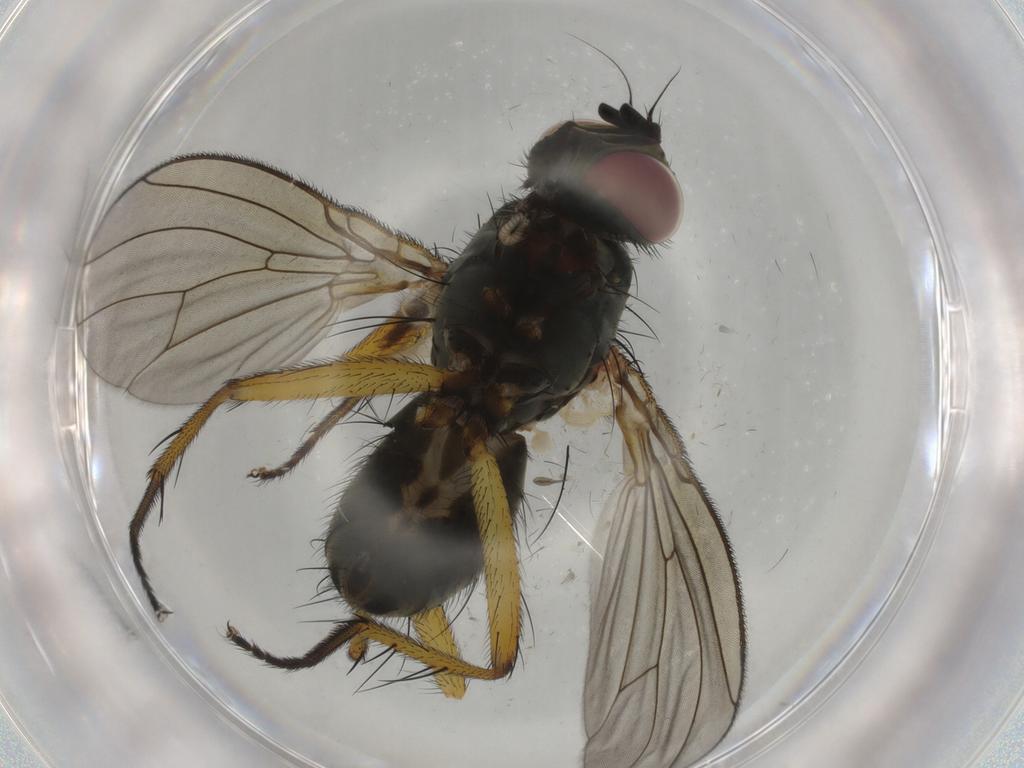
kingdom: Animalia
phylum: Arthropoda
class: Insecta
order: Diptera
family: Muscidae
